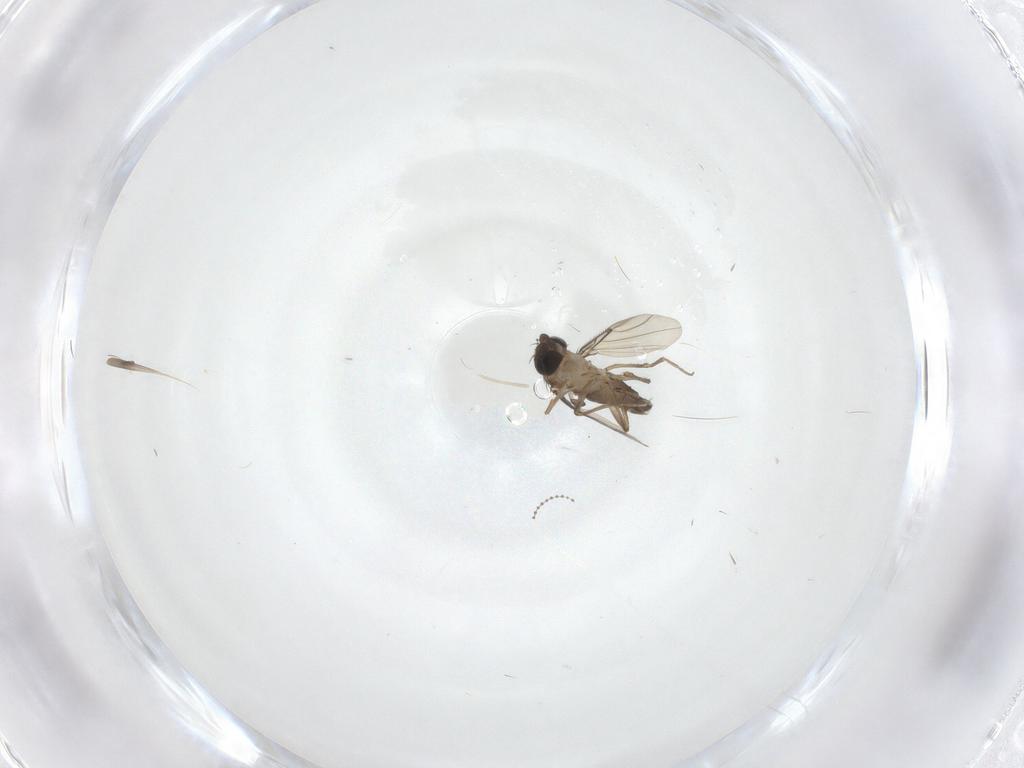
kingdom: Animalia
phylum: Arthropoda
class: Insecta
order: Diptera
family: Phoridae
